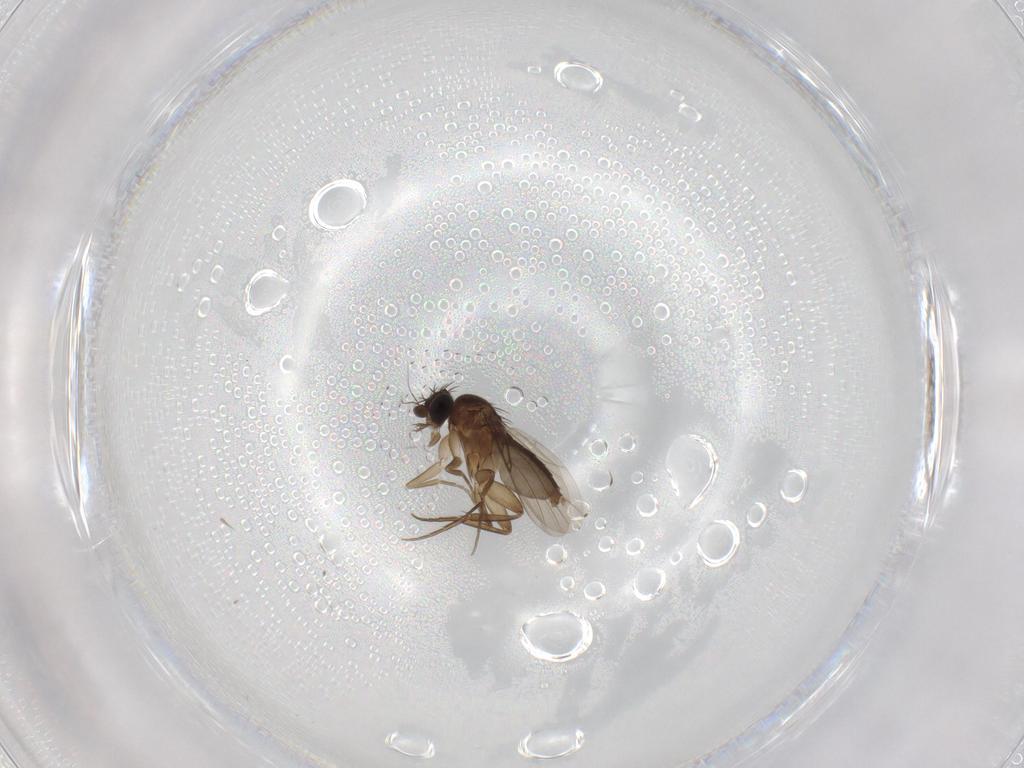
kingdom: Animalia
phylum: Arthropoda
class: Insecta
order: Diptera
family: Phoridae
